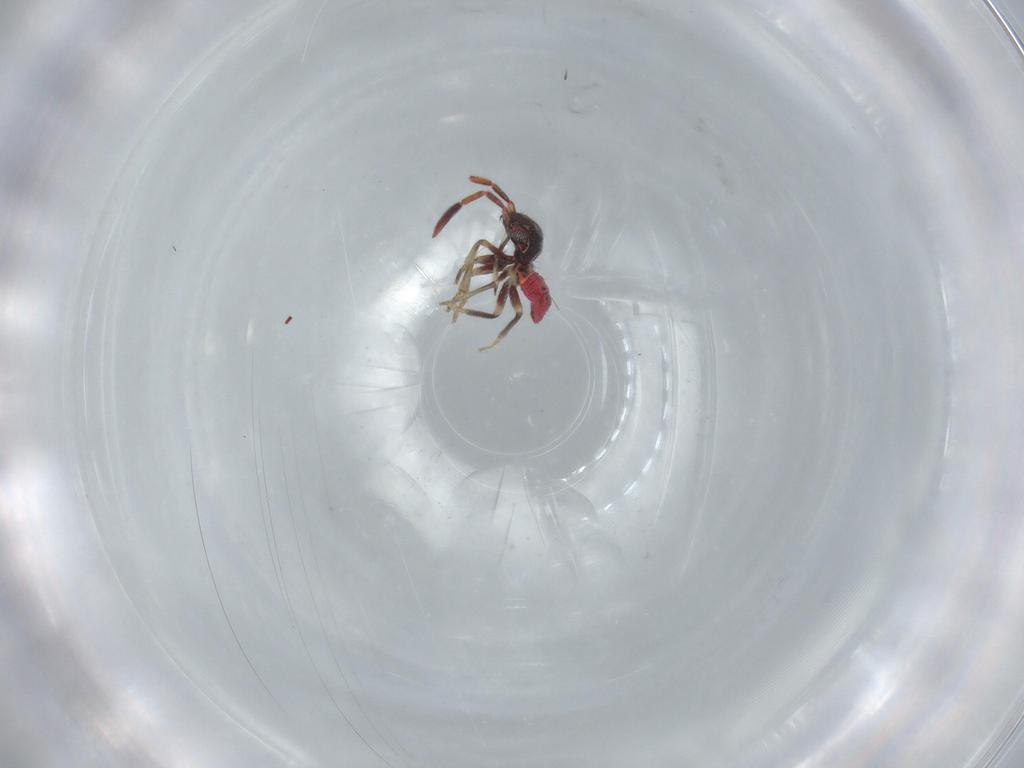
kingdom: Animalia
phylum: Arthropoda
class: Insecta
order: Hemiptera
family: Rhyparochromidae
